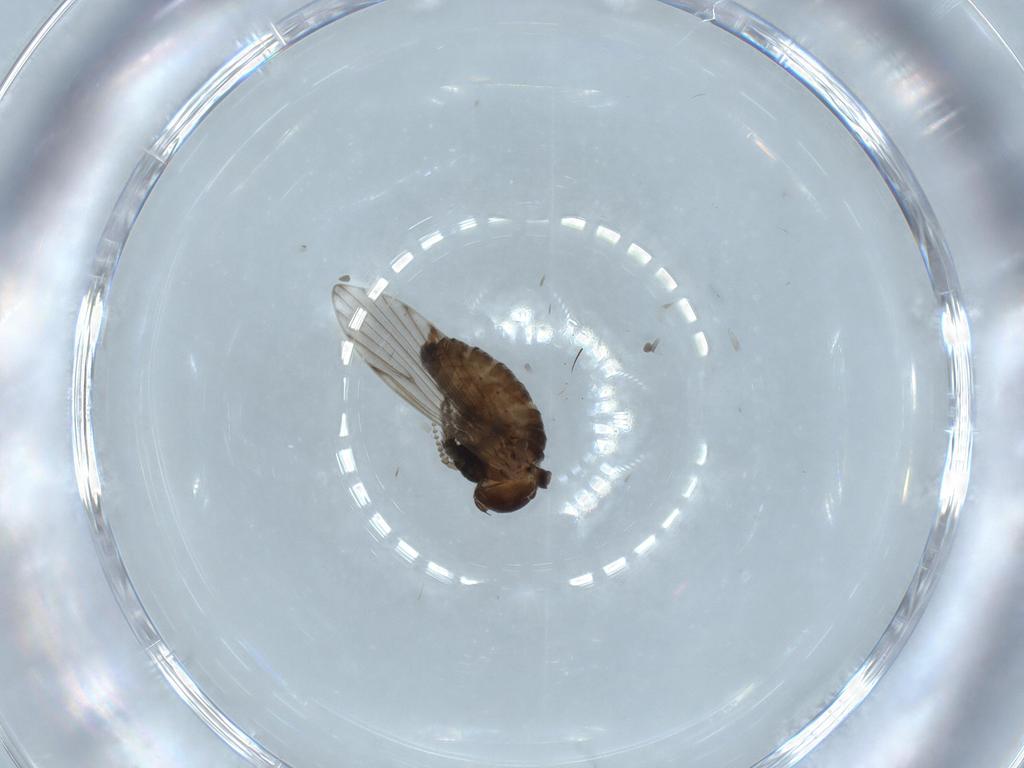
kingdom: Animalia
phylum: Arthropoda
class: Insecta
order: Diptera
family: Psychodidae
